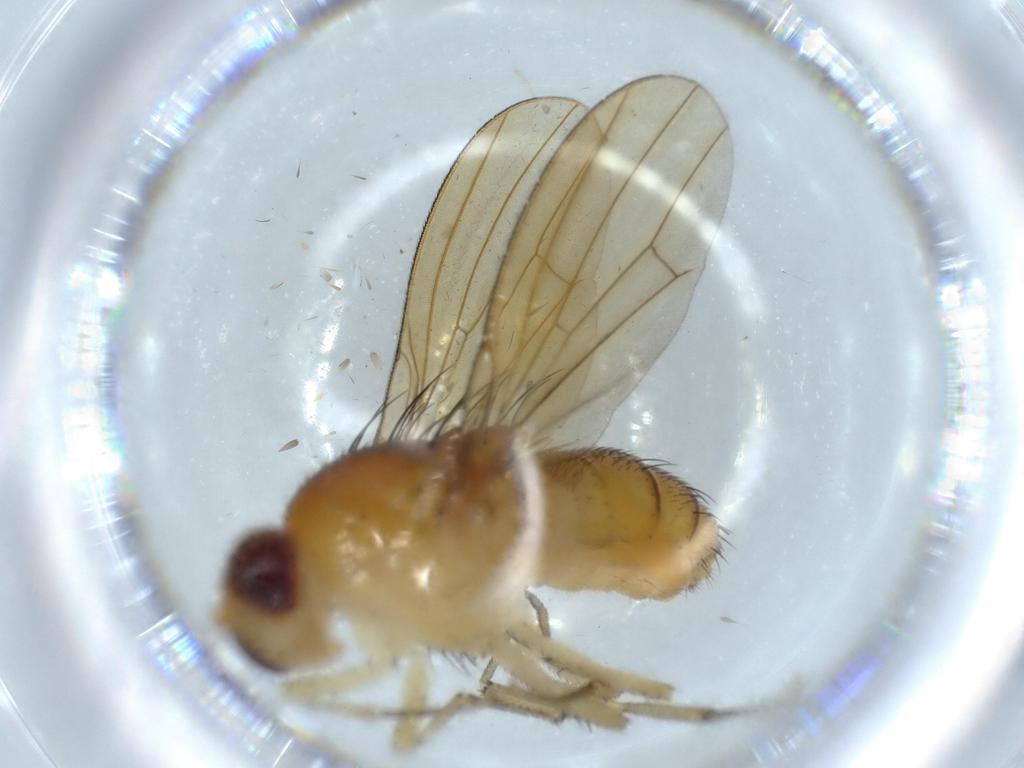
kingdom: Animalia
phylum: Arthropoda
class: Insecta
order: Diptera
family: Lauxaniidae
